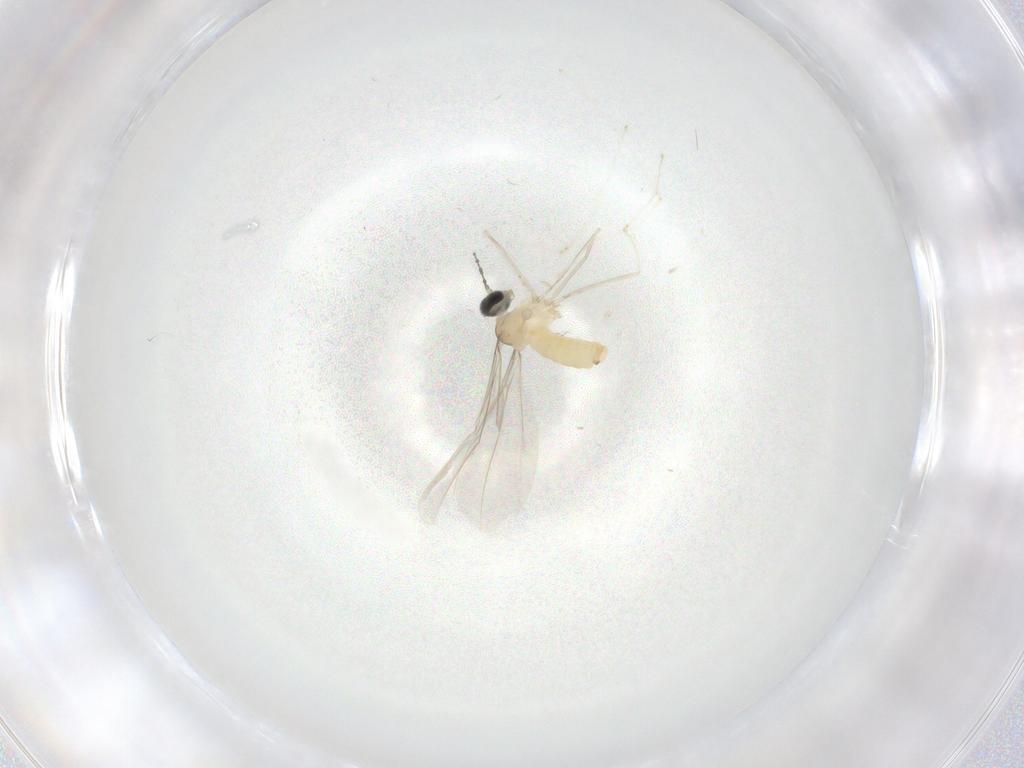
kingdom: Animalia
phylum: Arthropoda
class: Insecta
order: Diptera
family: Cecidomyiidae
